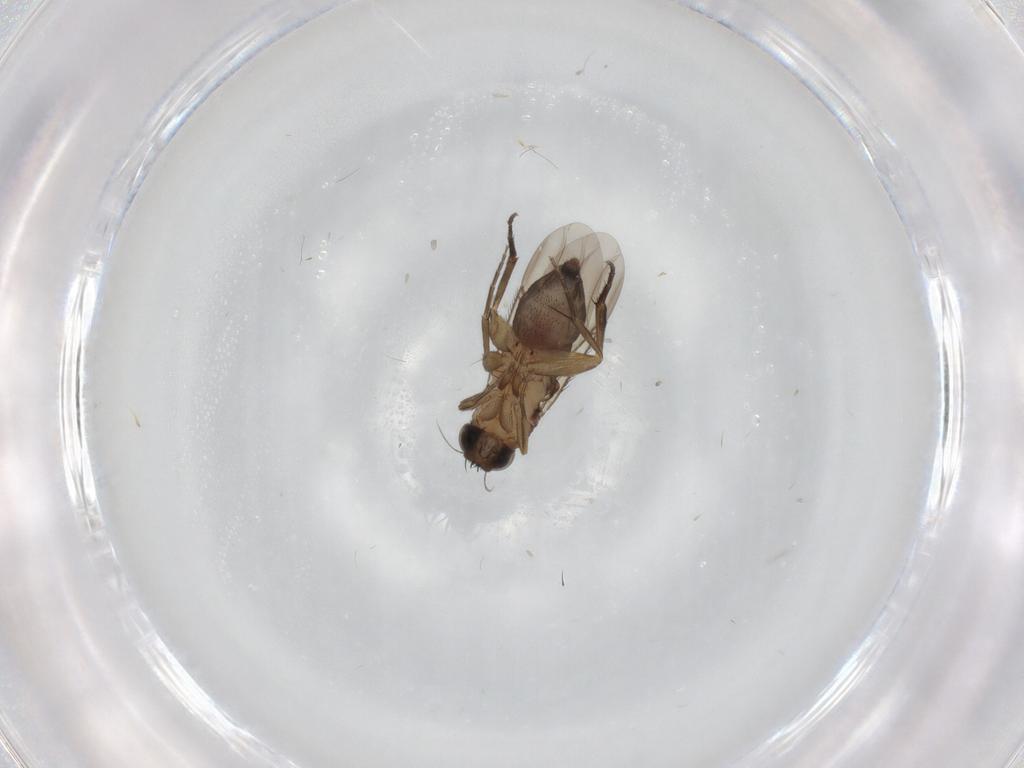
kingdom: Animalia
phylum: Arthropoda
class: Insecta
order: Diptera
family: Phoridae
